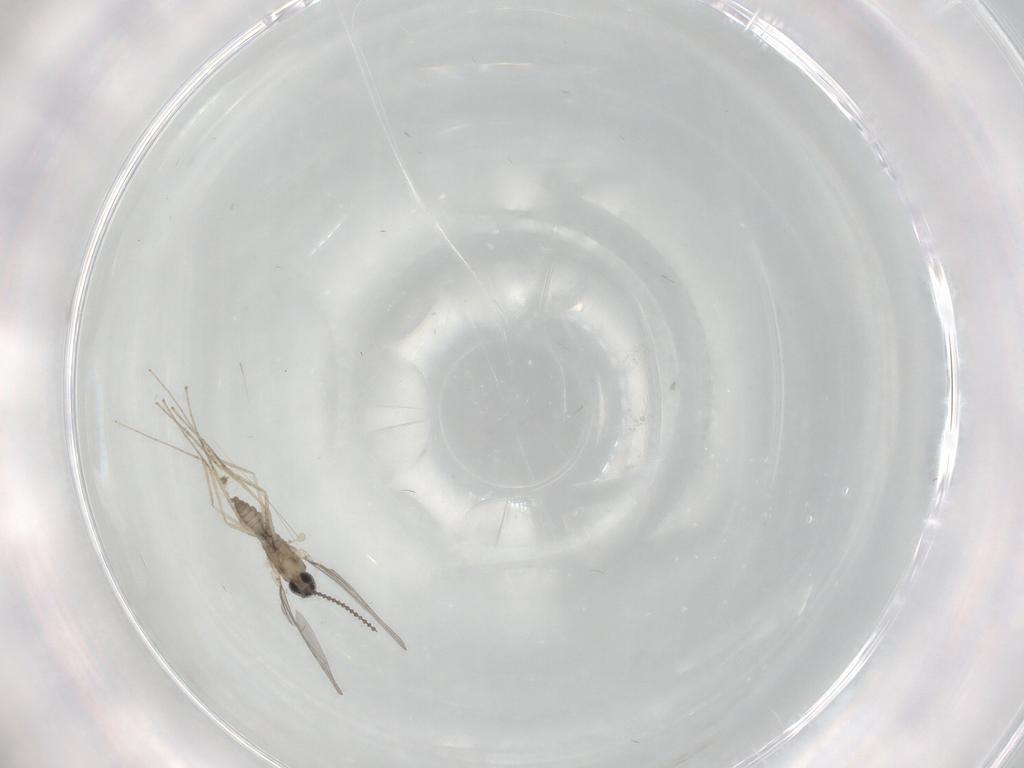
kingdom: Animalia
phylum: Arthropoda
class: Insecta
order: Diptera
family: Cecidomyiidae
